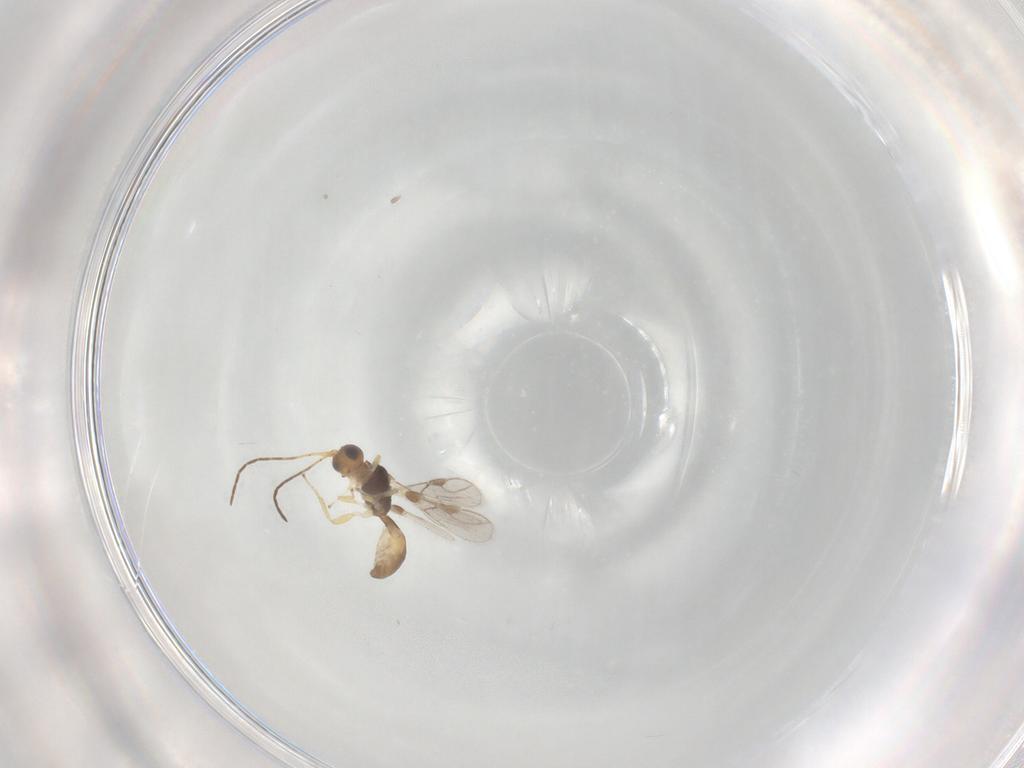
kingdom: Animalia
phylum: Arthropoda
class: Insecta
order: Hymenoptera
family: Braconidae
